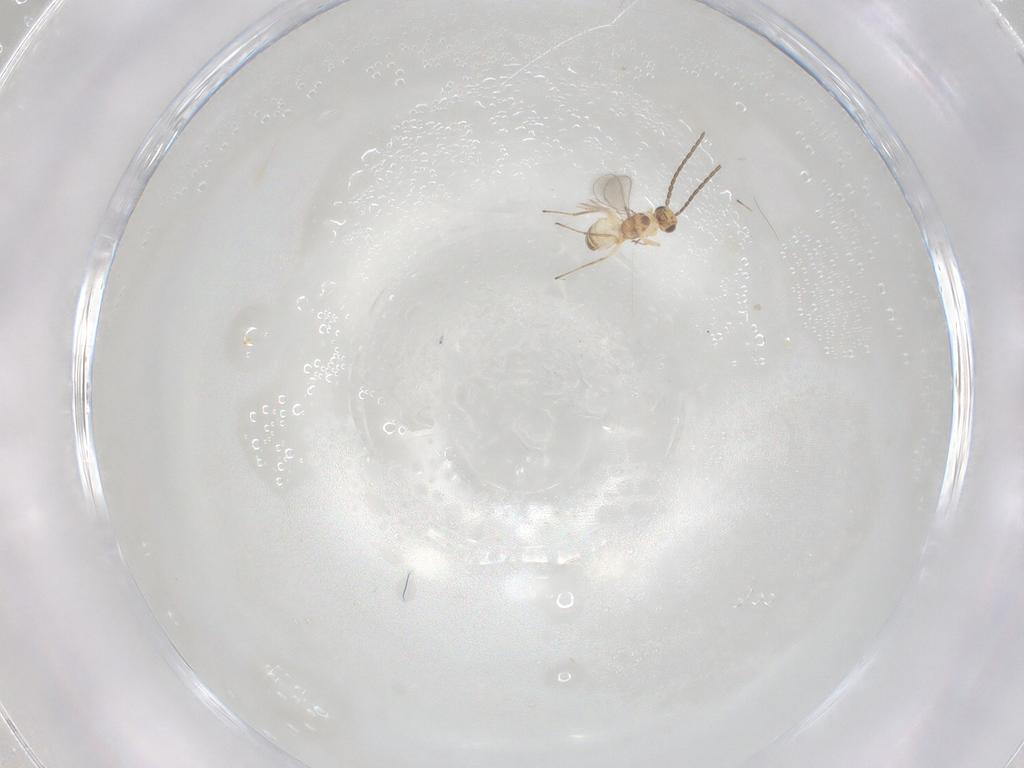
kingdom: Animalia
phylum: Arthropoda
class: Insecta
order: Hymenoptera
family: Mymaridae
